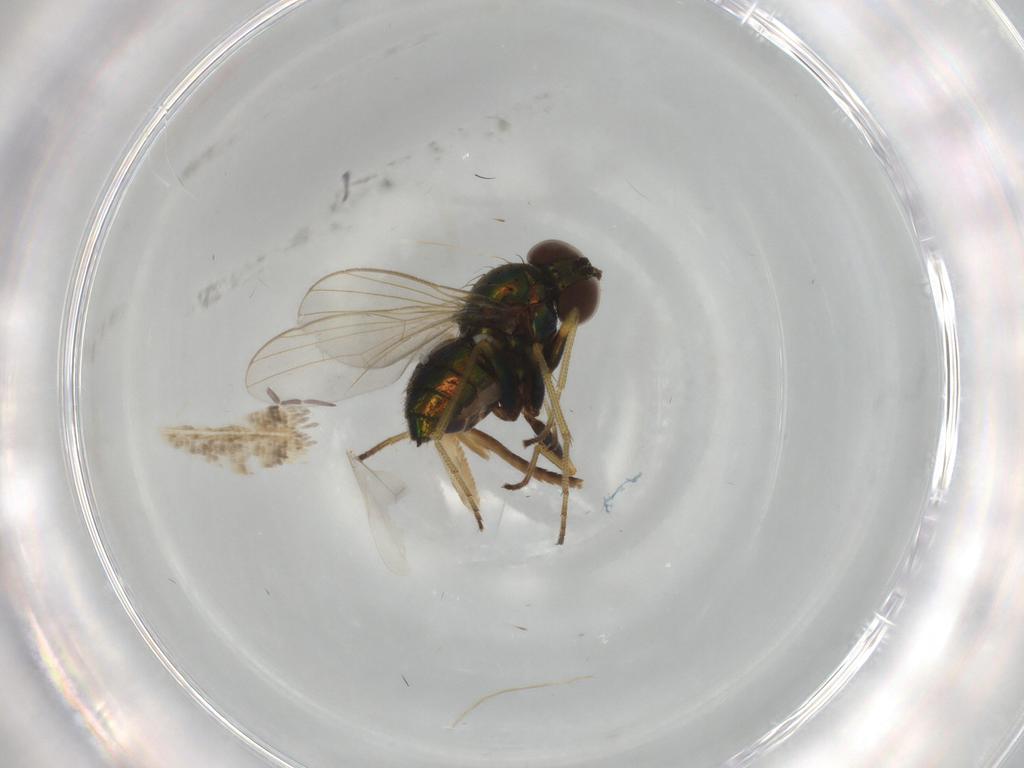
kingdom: Animalia
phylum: Arthropoda
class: Insecta
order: Diptera
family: Dolichopodidae
